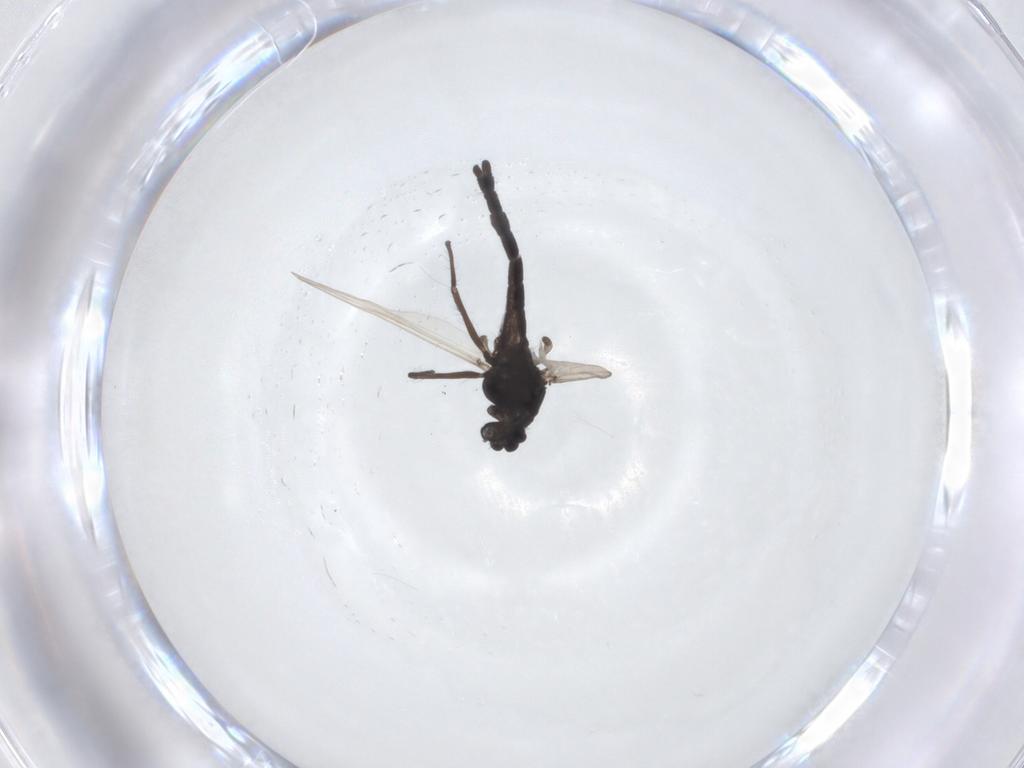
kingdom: Animalia
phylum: Arthropoda
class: Insecta
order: Diptera
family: Chironomidae
